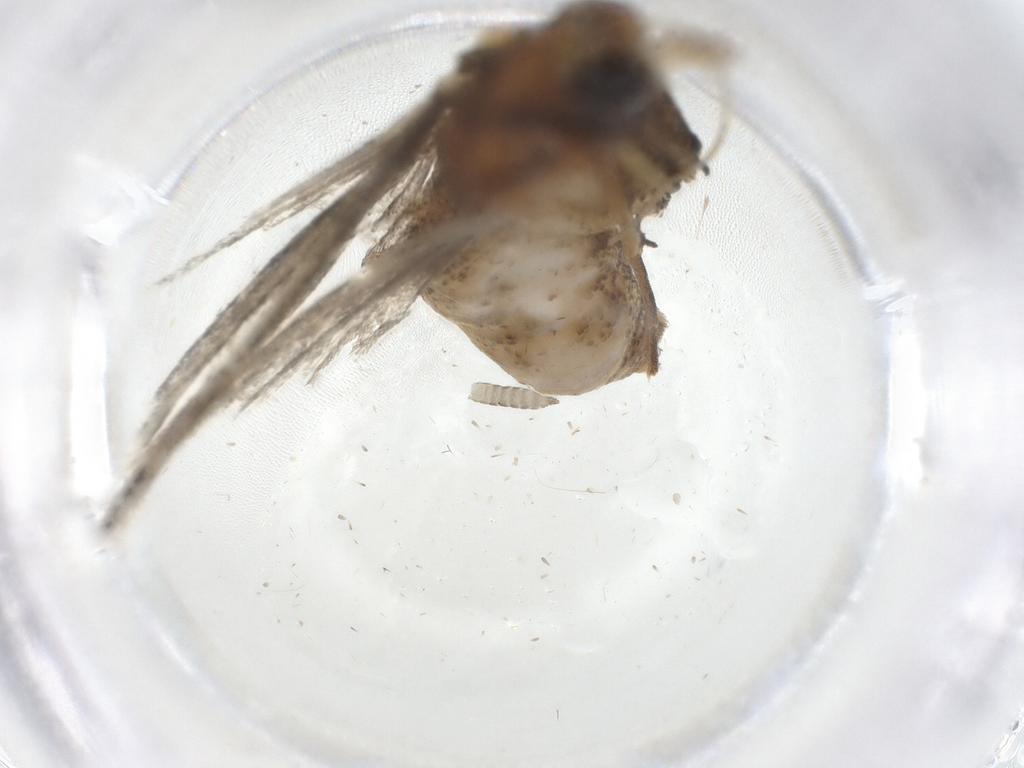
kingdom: Animalia
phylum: Arthropoda
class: Insecta
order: Lepidoptera
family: Crambidae
